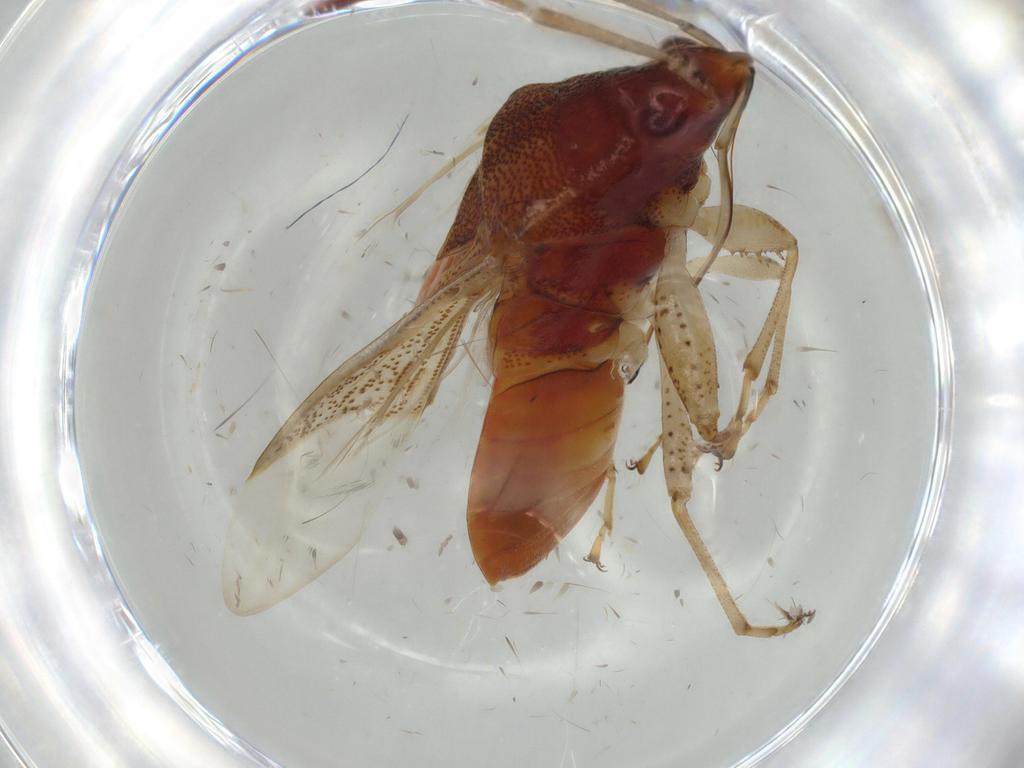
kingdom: Animalia
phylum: Arthropoda
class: Insecta
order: Hemiptera
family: Rhyparochromidae
